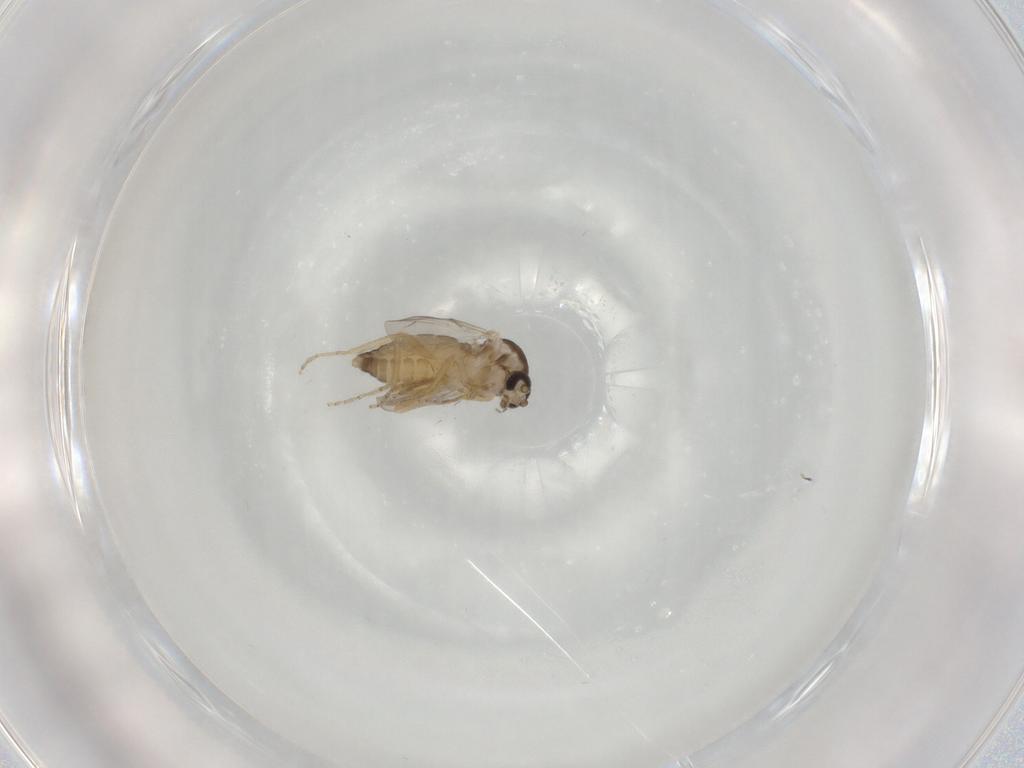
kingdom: Animalia
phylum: Arthropoda
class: Insecta
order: Diptera
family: Ceratopogonidae
